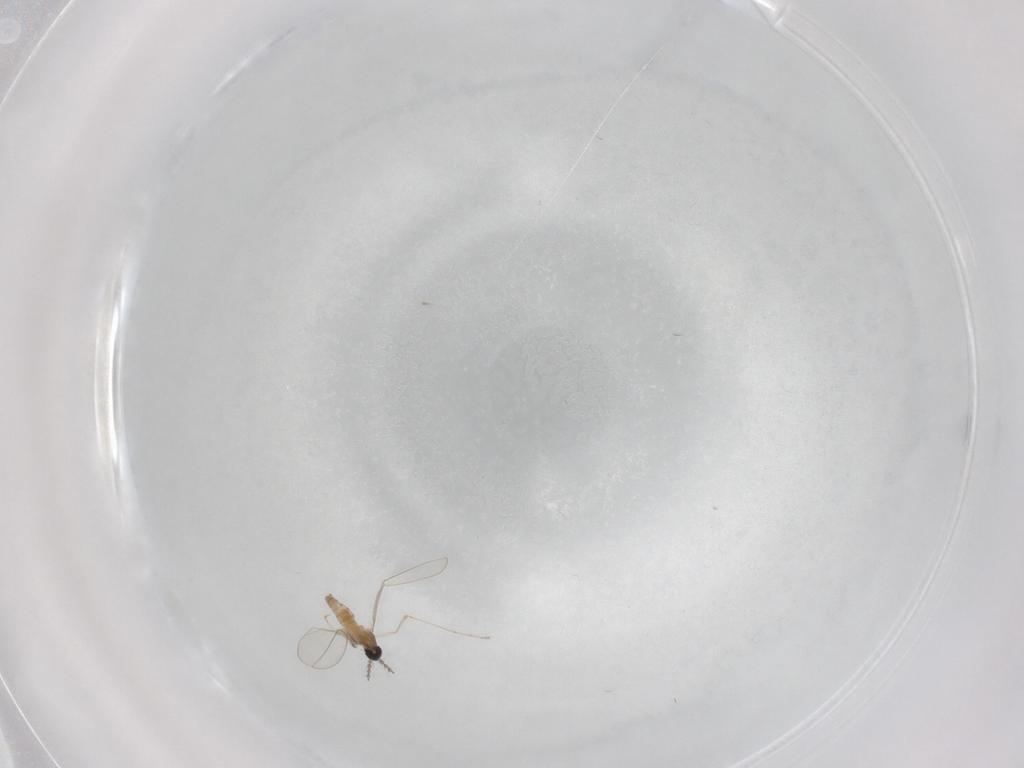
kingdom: Animalia
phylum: Arthropoda
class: Insecta
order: Diptera
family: Cecidomyiidae
